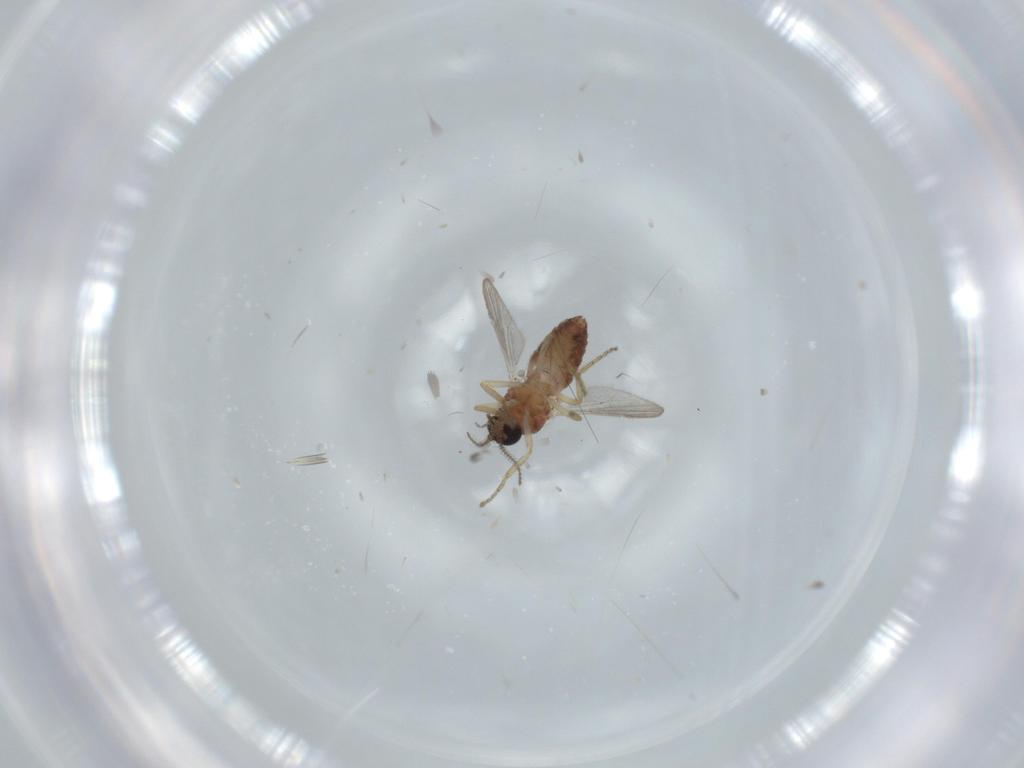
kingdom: Animalia
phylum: Arthropoda
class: Insecta
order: Diptera
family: Ceratopogonidae
